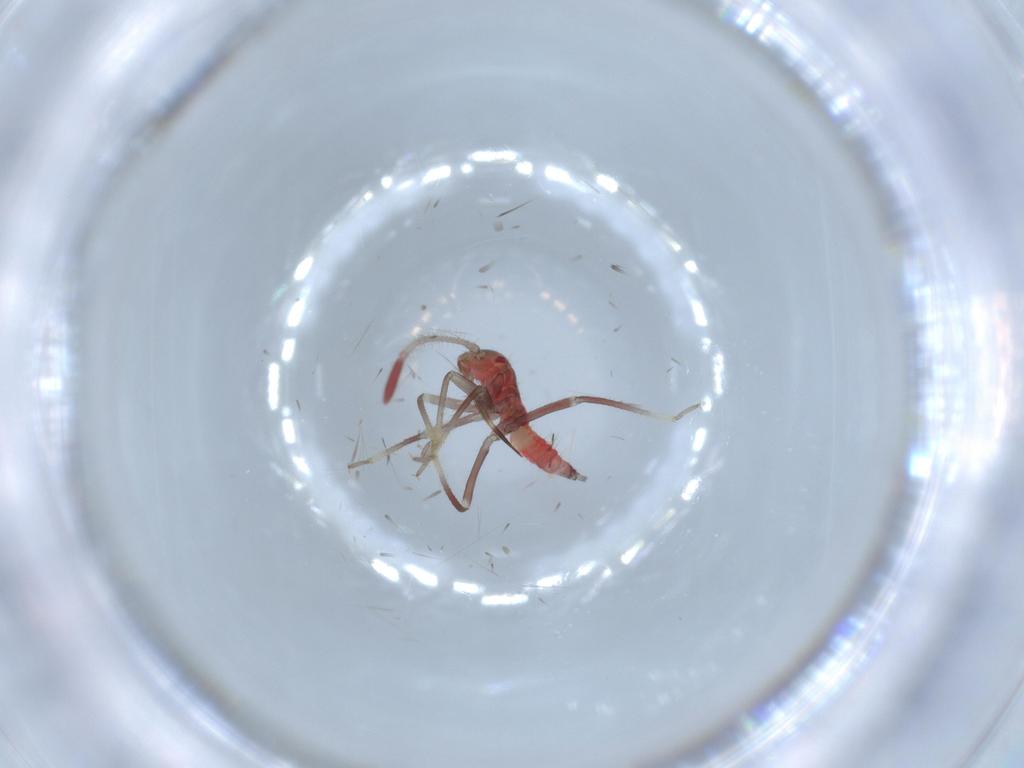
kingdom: Animalia
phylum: Arthropoda
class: Insecta
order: Hemiptera
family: Miridae
